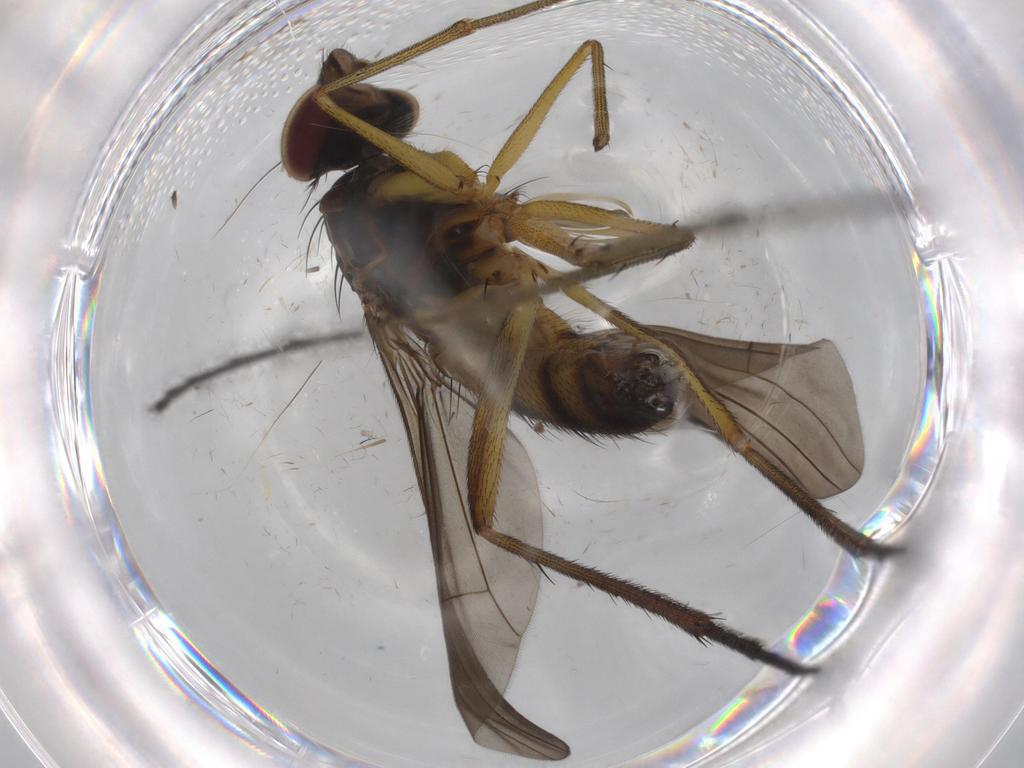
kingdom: Animalia
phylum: Arthropoda
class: Insecta
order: Diptera
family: Dolichopodidae
